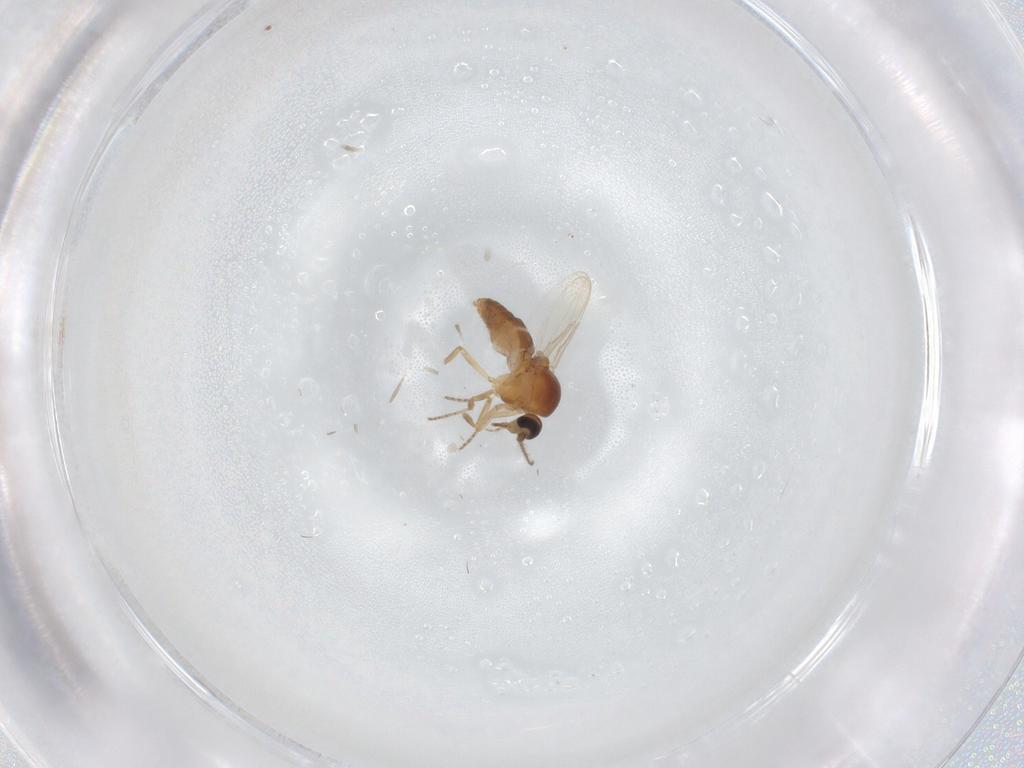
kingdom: Animalia
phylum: Arthropoda
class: Insecta
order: Diptera
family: Ceratopogonidae
